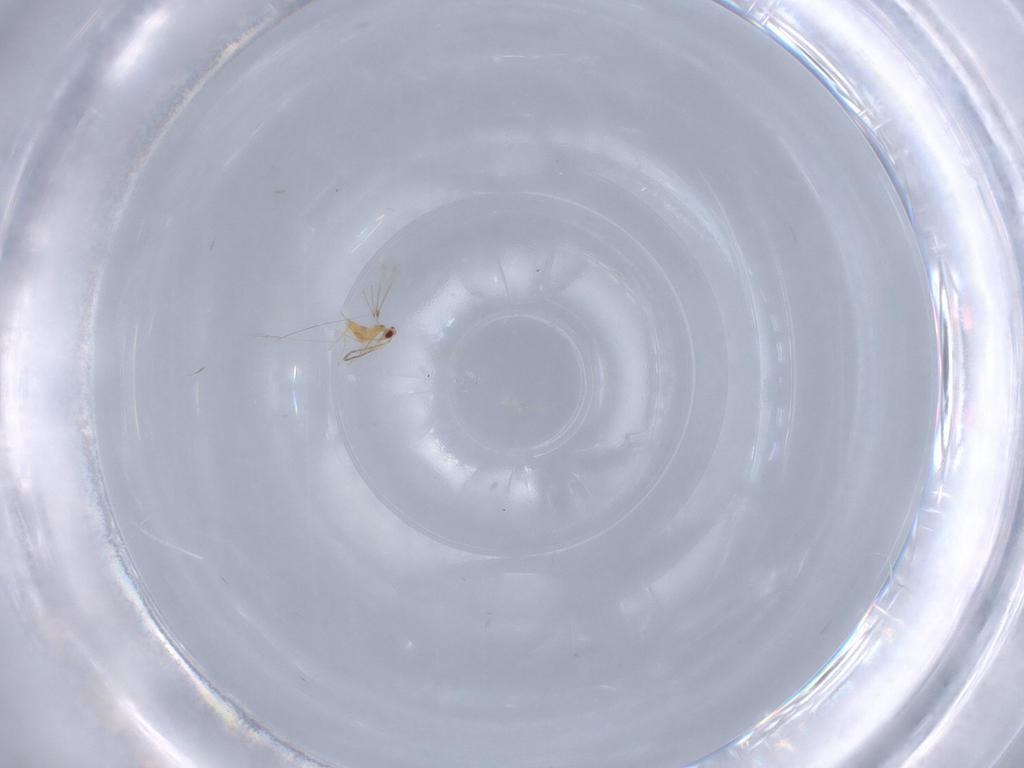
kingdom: Animalia
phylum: Arthropoda
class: Insecta
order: Hymenoptera
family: Mymaridae
